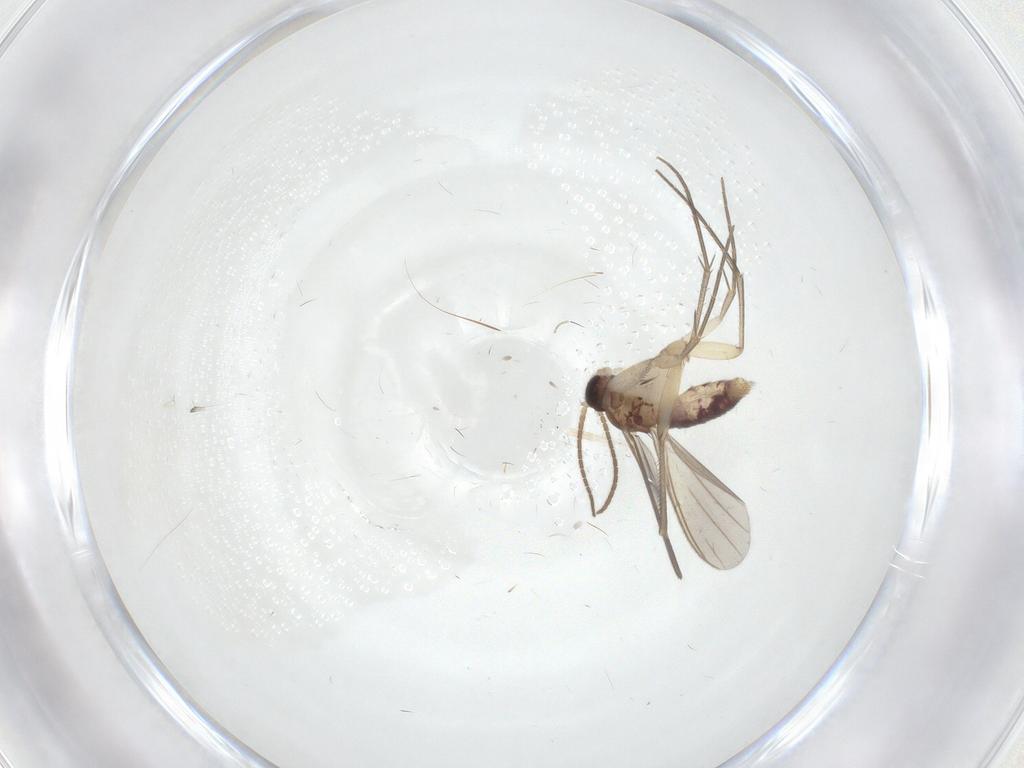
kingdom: Animalia
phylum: Arthropoda
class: Insecta
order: Diptera
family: Mycetophilidae
